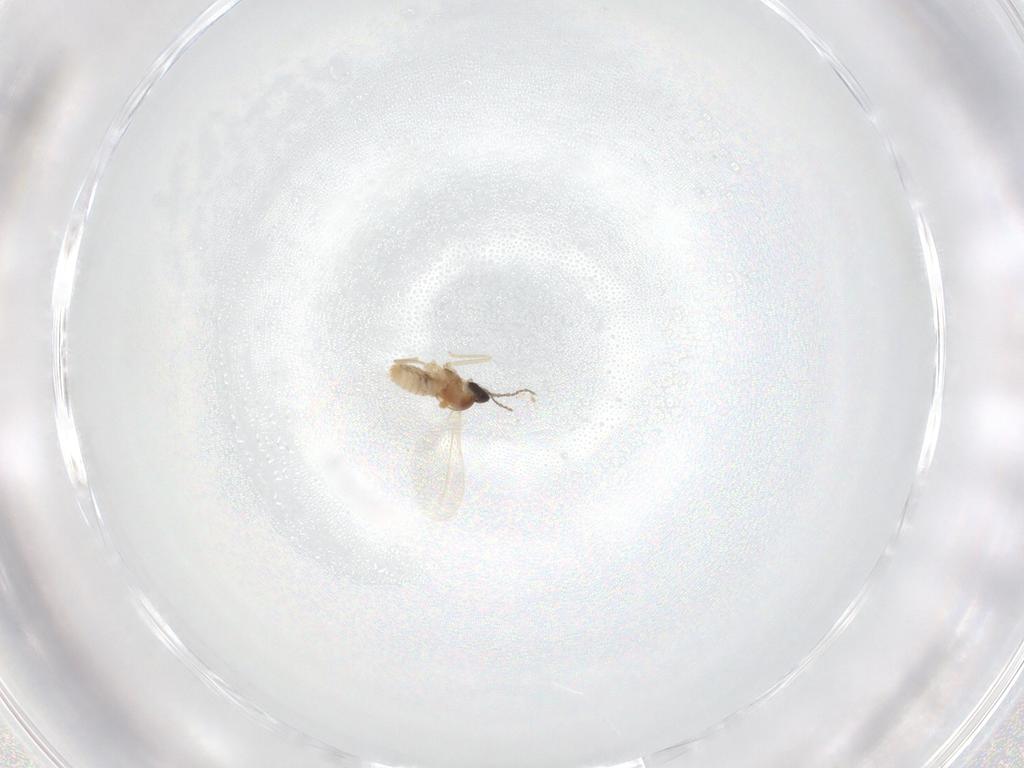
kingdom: Animalia
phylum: Arthropoda
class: Insecta
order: Diptera
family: Cecidomyiidae
